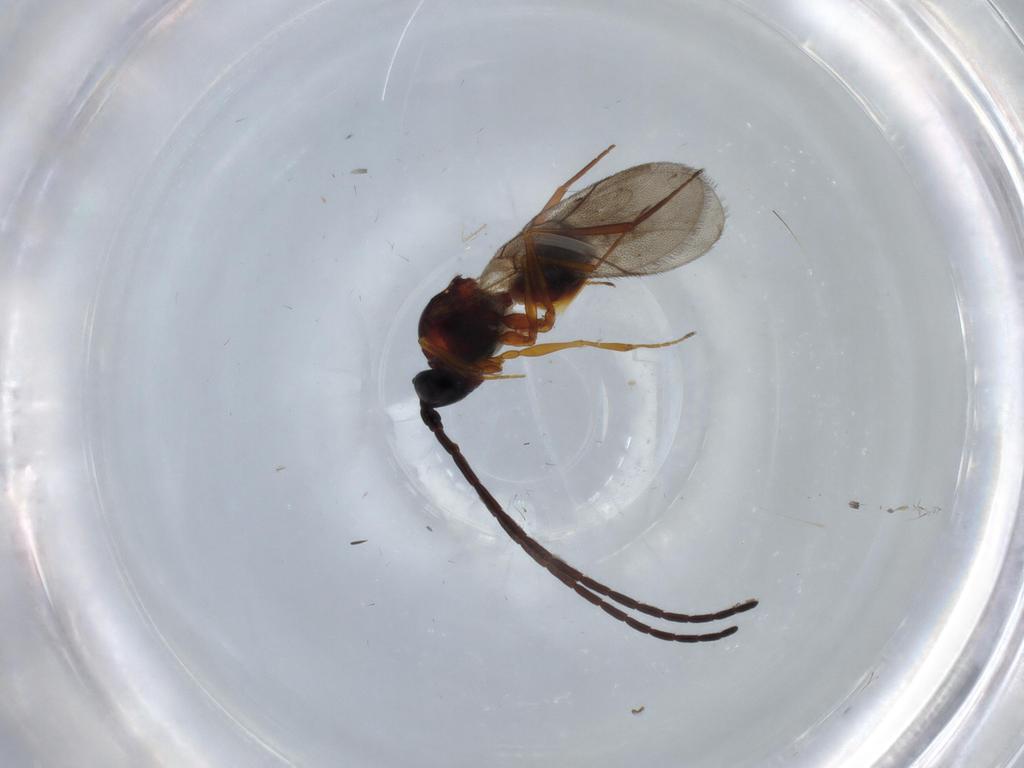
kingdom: Animalia
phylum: Arthropoda
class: Insecta
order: Hymenoptera
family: Figitidae
